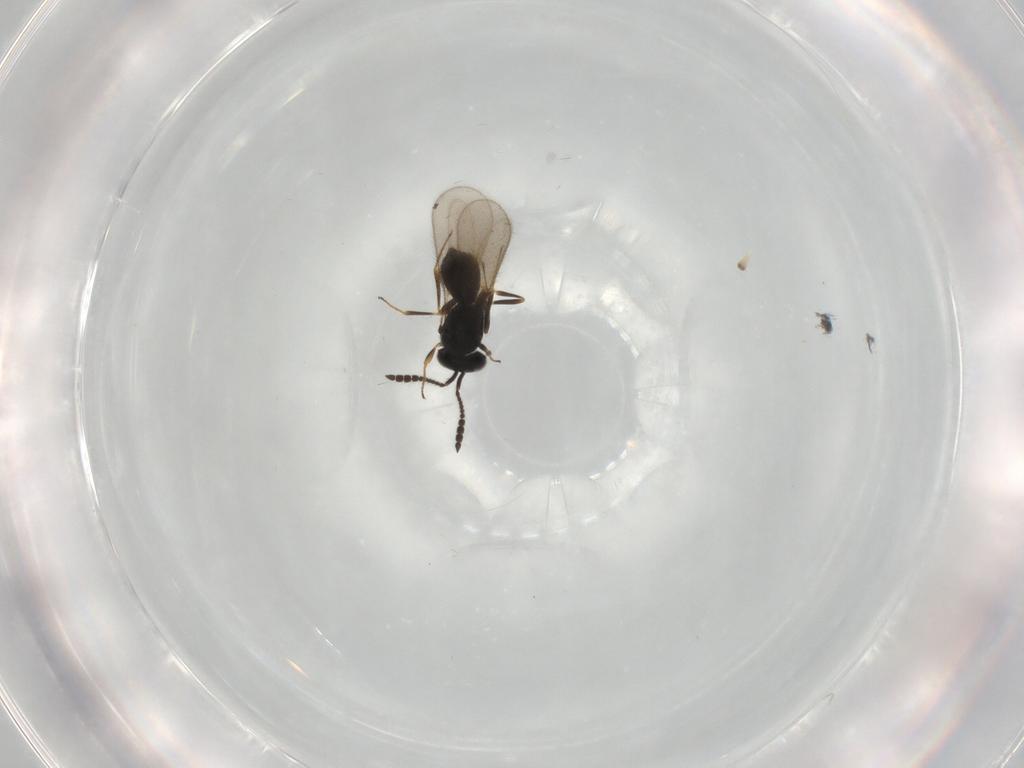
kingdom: Animalia
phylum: Arthropoda
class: Insecta
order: Hymenoptera
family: Scelionidae
